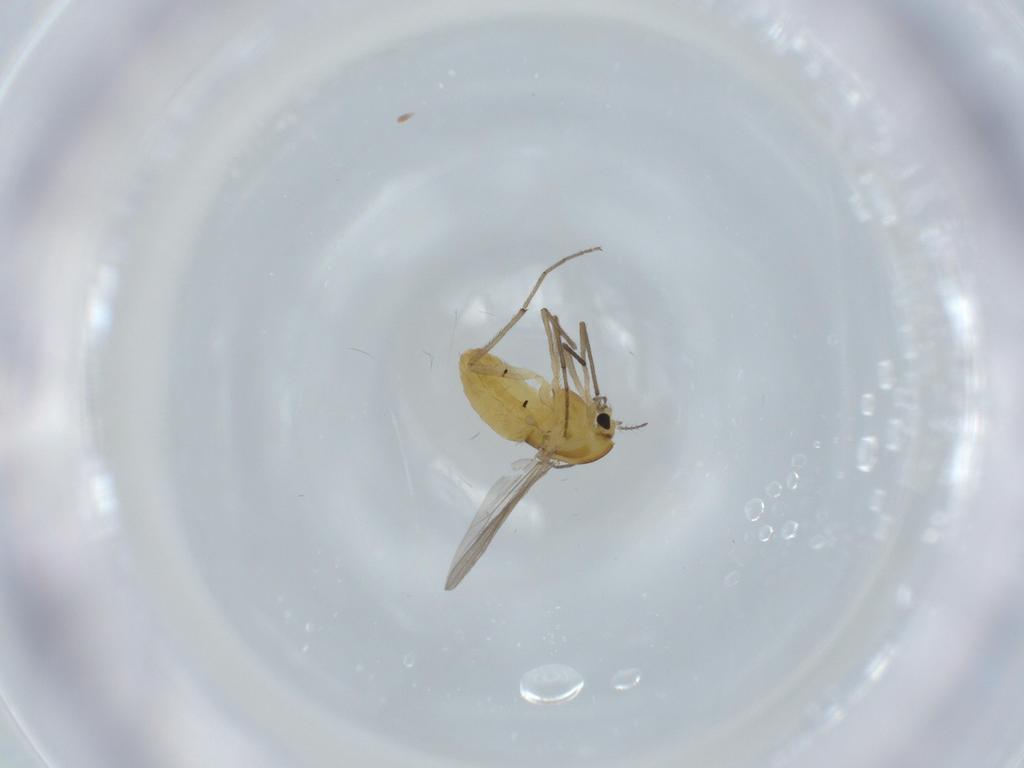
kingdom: Animalia
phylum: Arthropoda
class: Insecta
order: Diptera
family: Chironomidae
